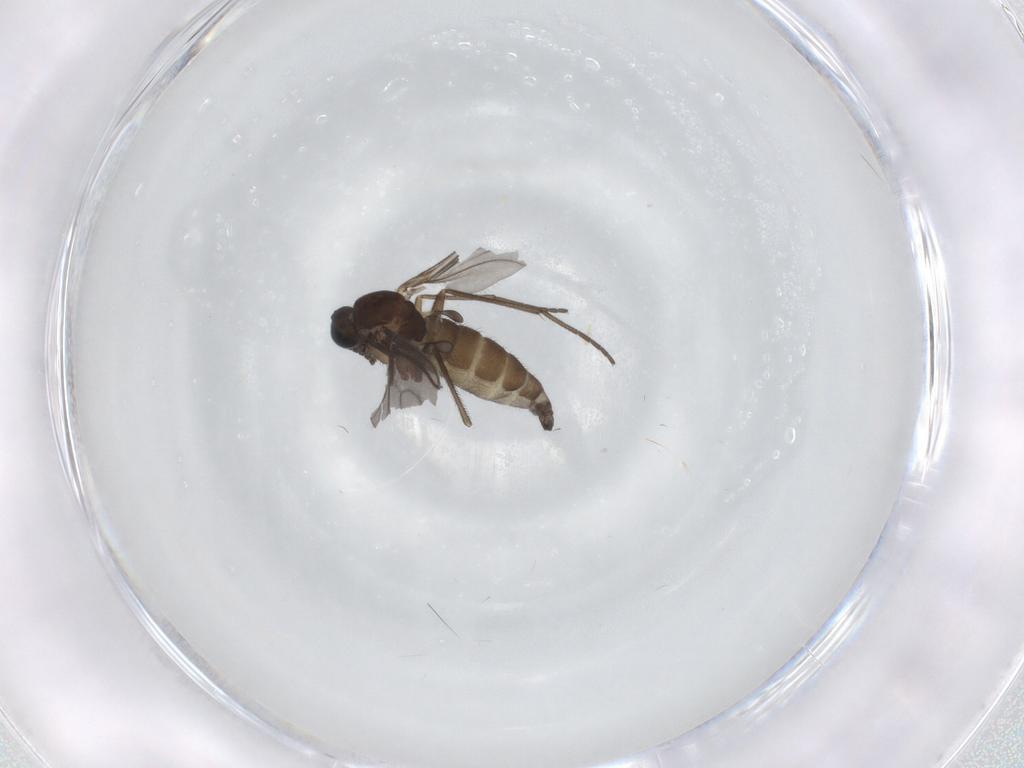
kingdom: Animalia
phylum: Arthropoda
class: Insecta
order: Diptera
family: Sciaridae
